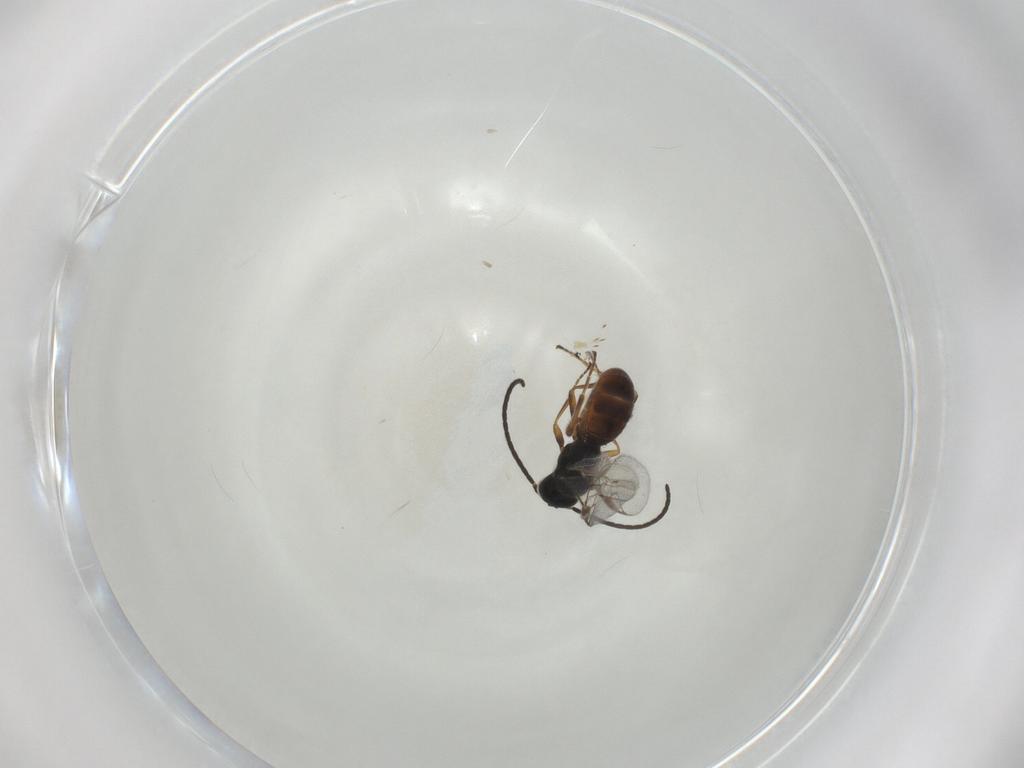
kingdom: Animalia
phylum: Arthropoda
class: Insecta
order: Hymenoptera
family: Braconidae
